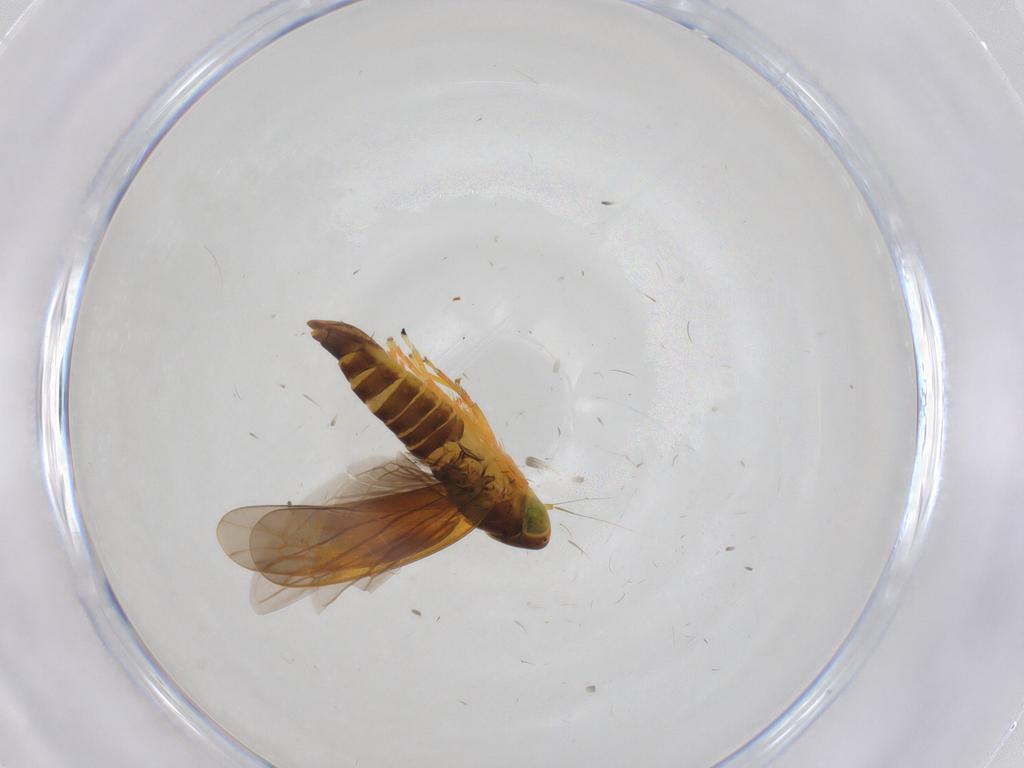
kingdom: Animalia
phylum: Arthropoda
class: Insecta
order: Hemiptera
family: Cicadellidae
